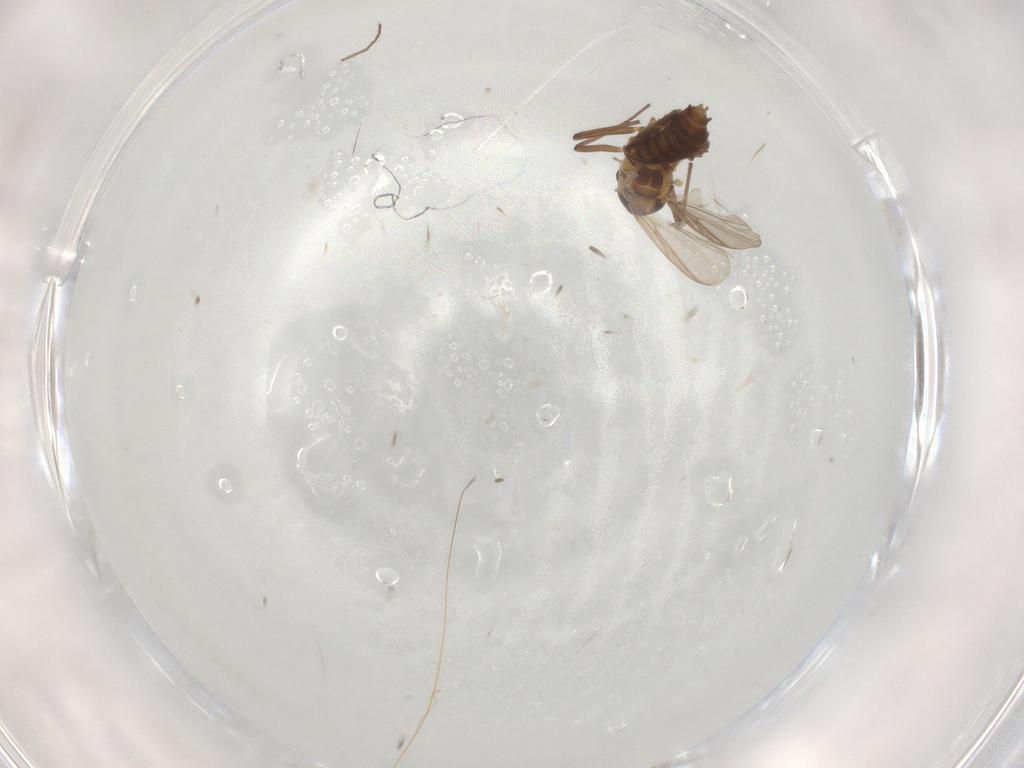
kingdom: Animalia
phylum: Arthropoda
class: Insecta
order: Diptera
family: Chironomidae
